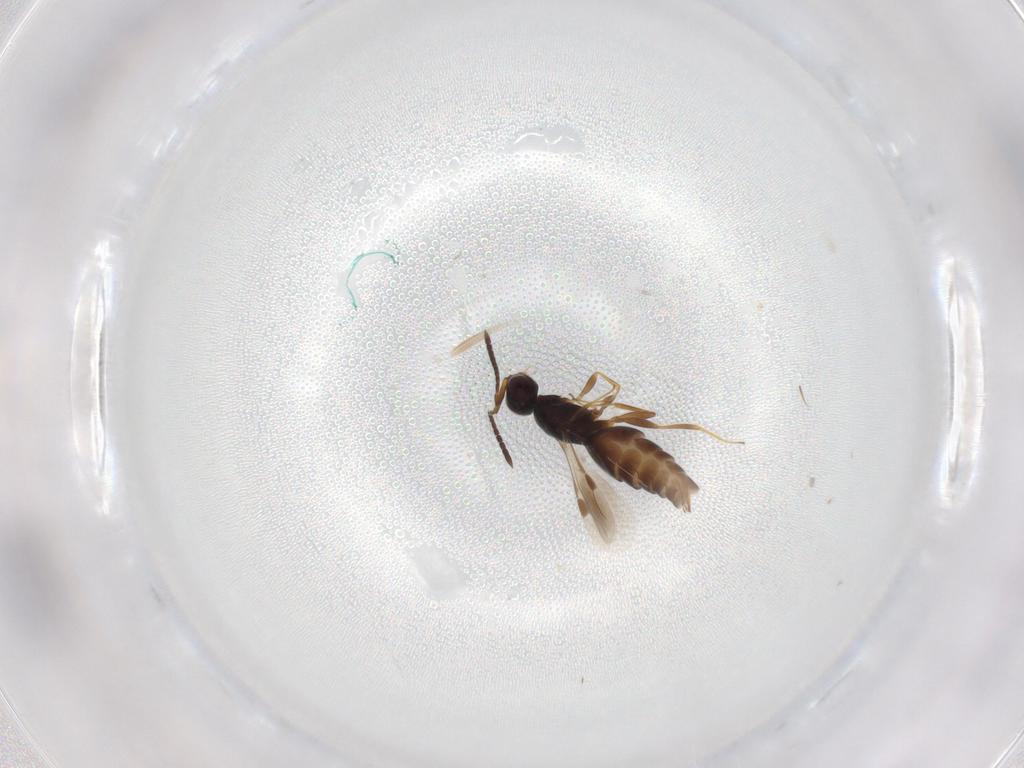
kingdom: Animalia
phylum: Arthropoda
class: Insecta
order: Hymenoptera
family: Megaspilidae
